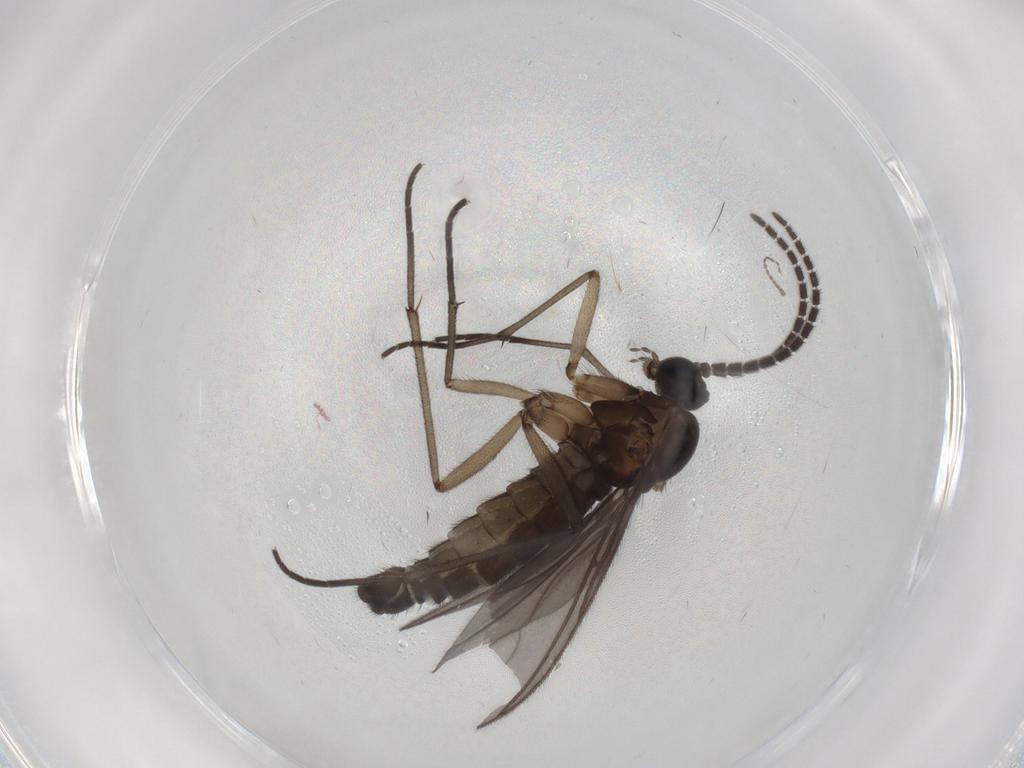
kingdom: Animalia
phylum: Arthropoda
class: Insecta
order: Diptera
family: Sciaridae
